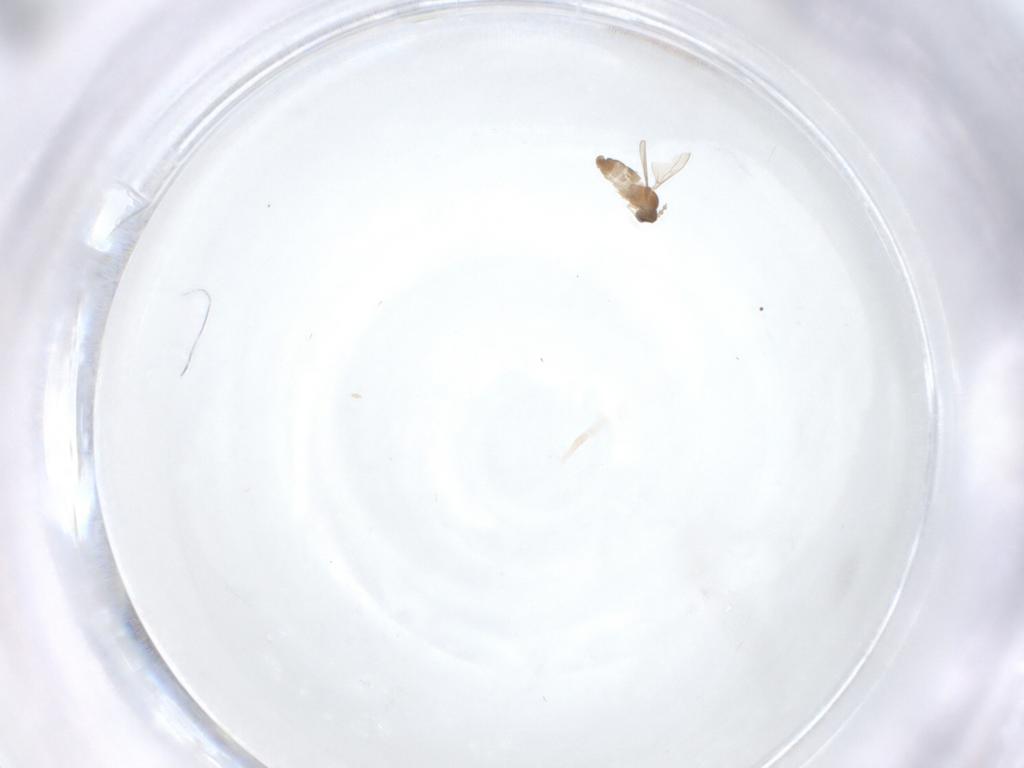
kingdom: Animalia
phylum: Arthropoda
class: Insecta
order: Diptera
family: Cecidomyiidae
